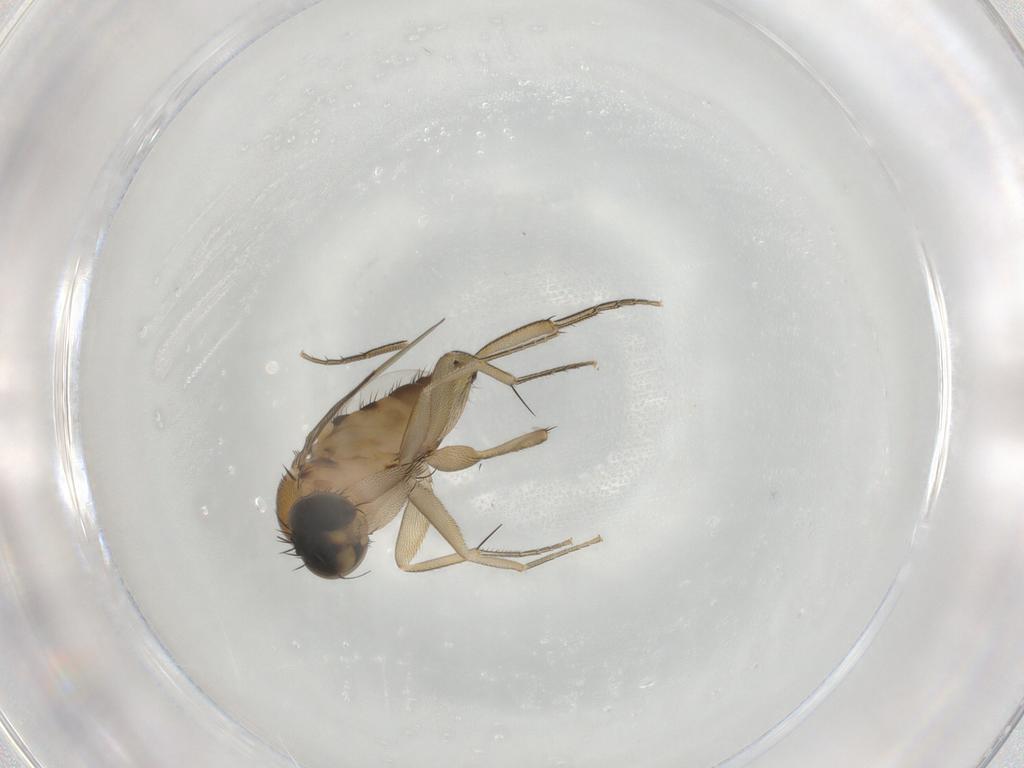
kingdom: Animalia
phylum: Arthropoda
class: Insecta
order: Diptera
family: Phoridae
